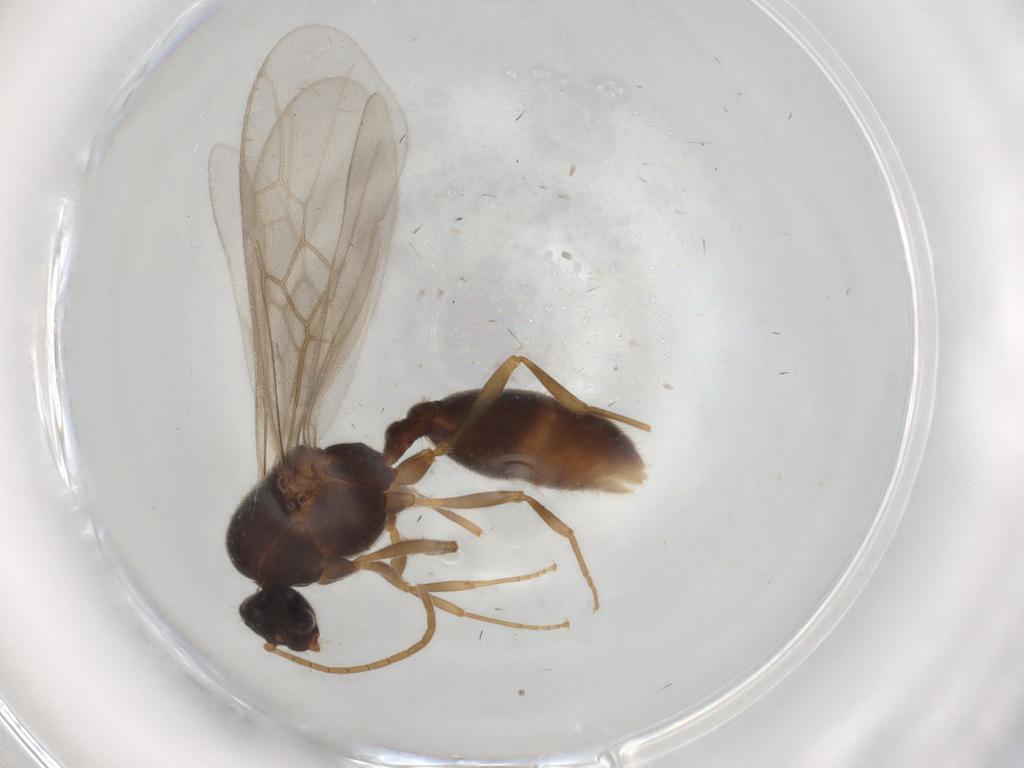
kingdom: Animalia
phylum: Arthropoda
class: Insecta
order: Hymenoptera
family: Formicidae
